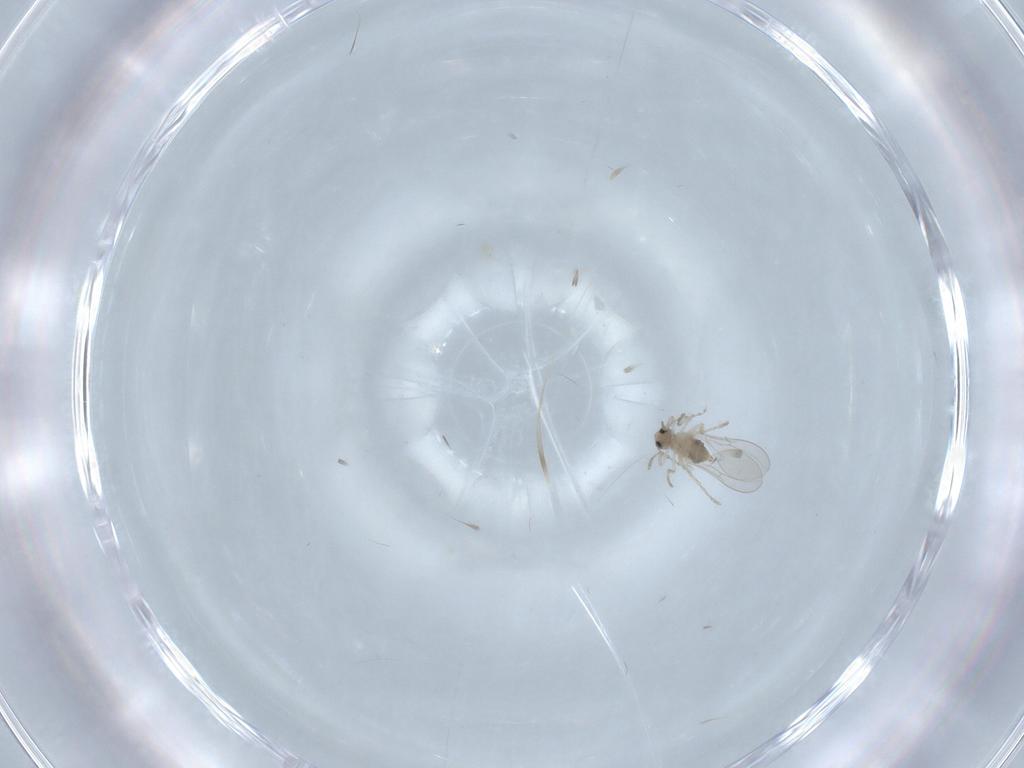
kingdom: Animalia
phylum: Arthropoda
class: Insecta
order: Diptera
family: Cecidomyiidae
